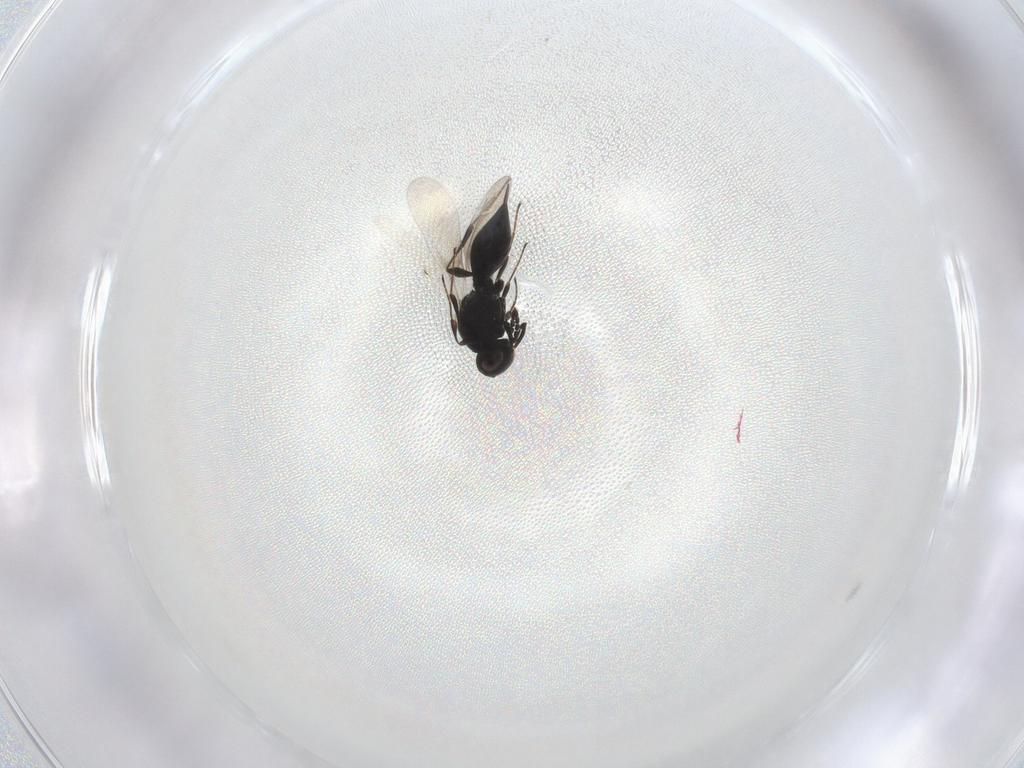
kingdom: Animalia
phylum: Arthropoda
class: Insecta
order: Hymenoptera
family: Platygastridae
